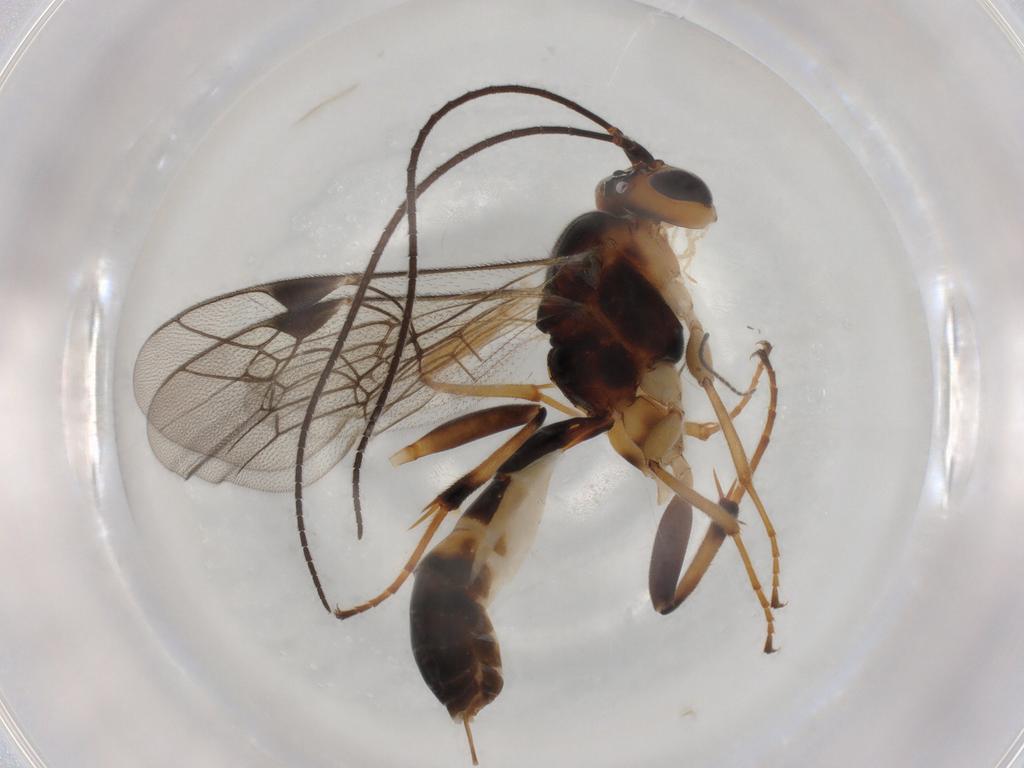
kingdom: Animalia
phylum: Arthropoda
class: Insecta
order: Hymenoptera
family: Ichneumonidae
